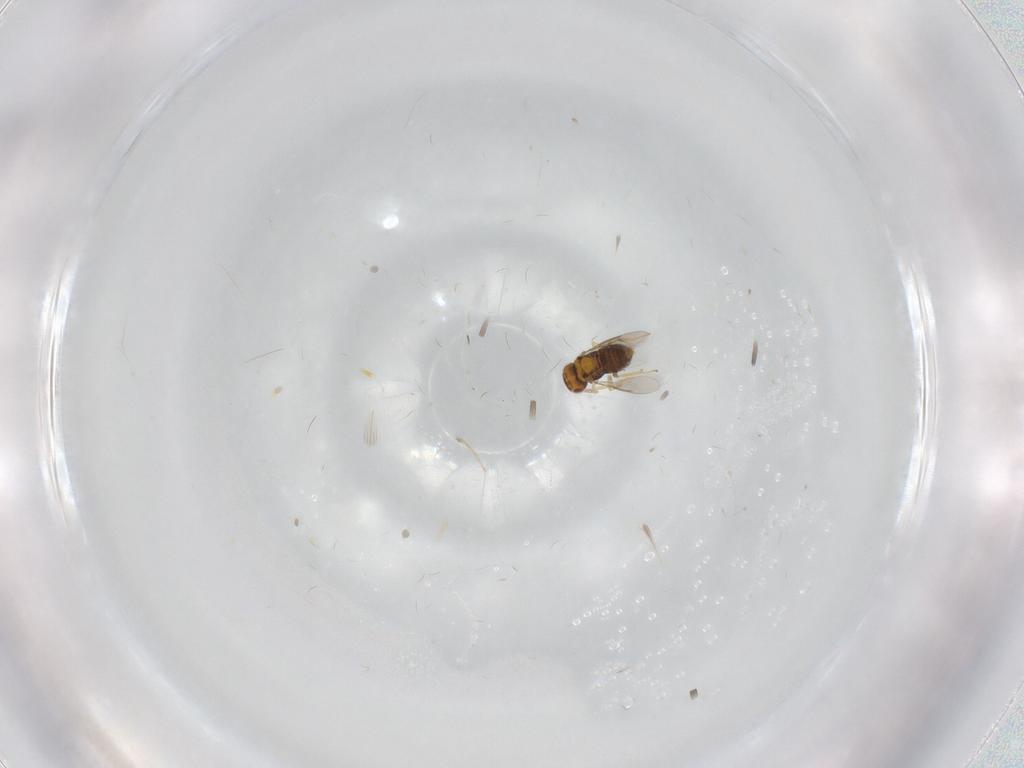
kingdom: Animalia
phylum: Arthropoda
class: Insecta
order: Hymenoptera
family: Aphelinidae
